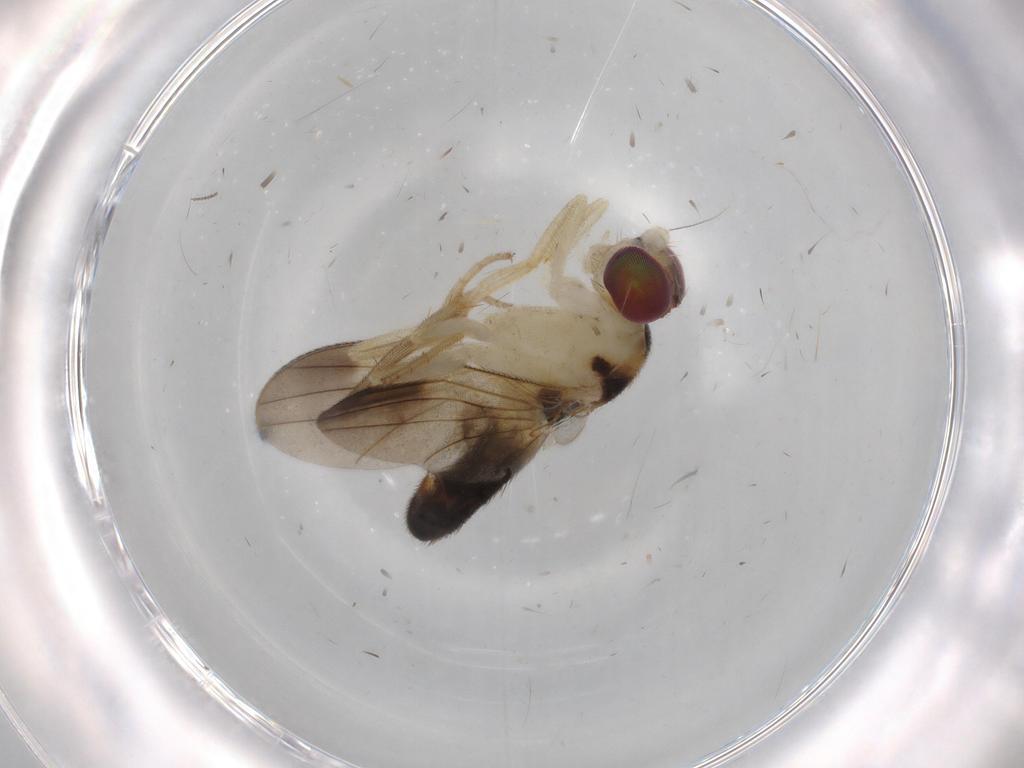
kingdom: Animalia
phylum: Arthropoda
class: Insecta
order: Diptera
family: Clusiidae
